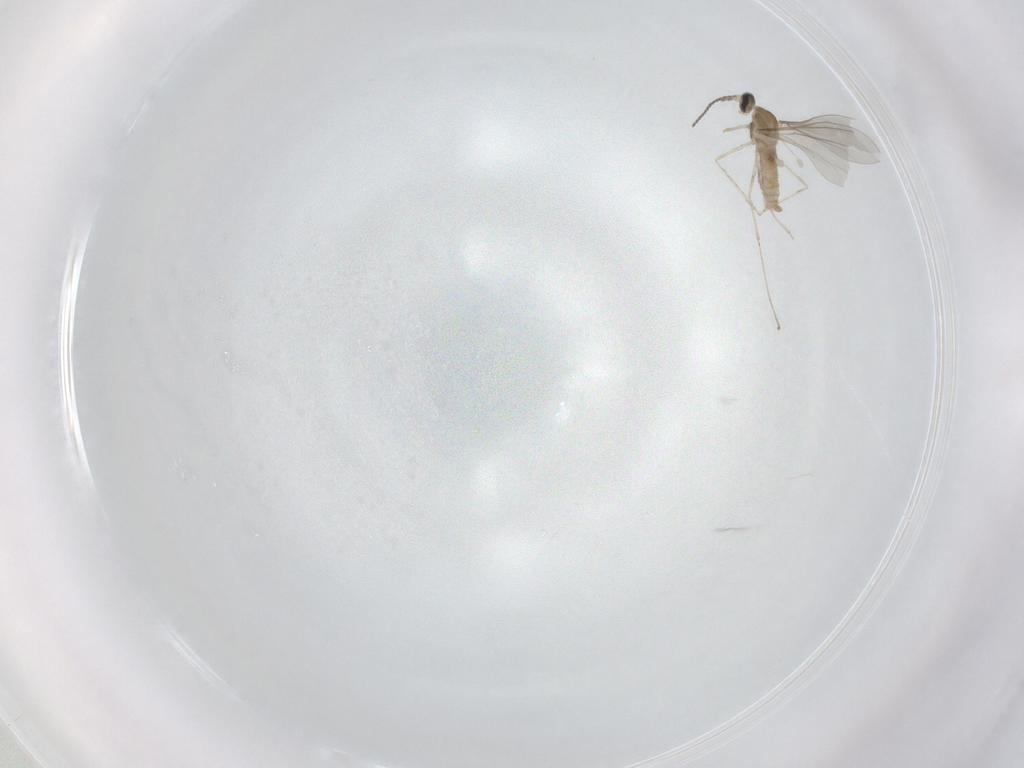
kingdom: Animalia
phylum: Arthropoda
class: Insecta
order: Diptera
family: Cecidomyiidae
